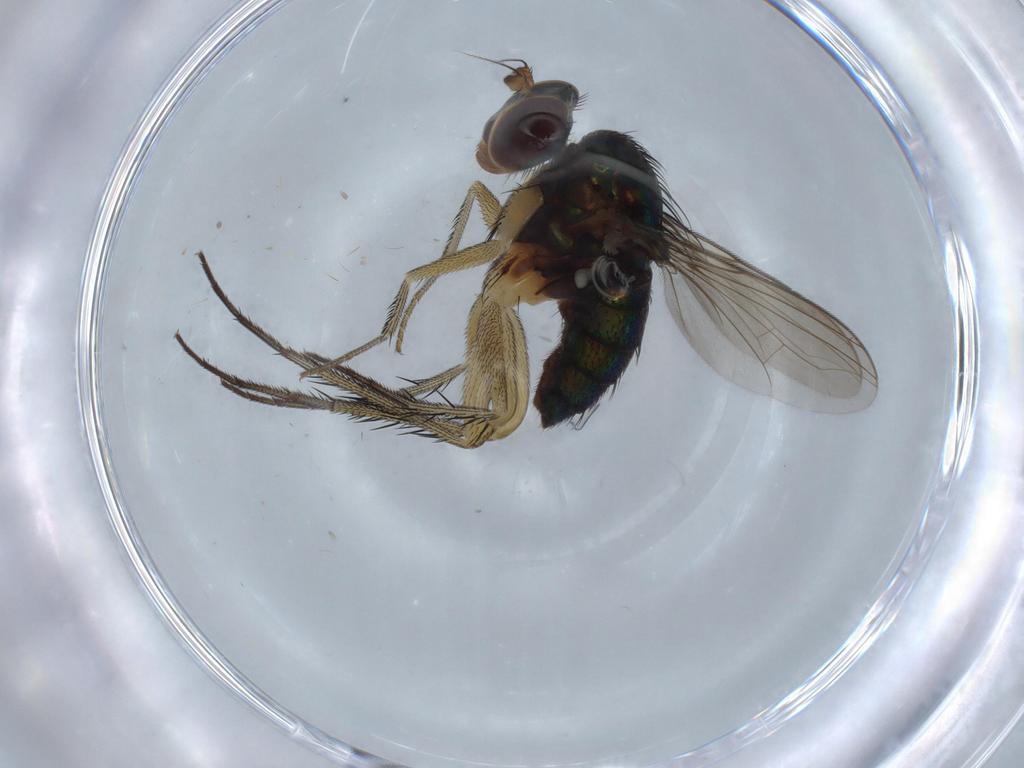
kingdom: Animalia
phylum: Arthropoda
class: Insecta
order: Diptera
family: Dolichopodidae
